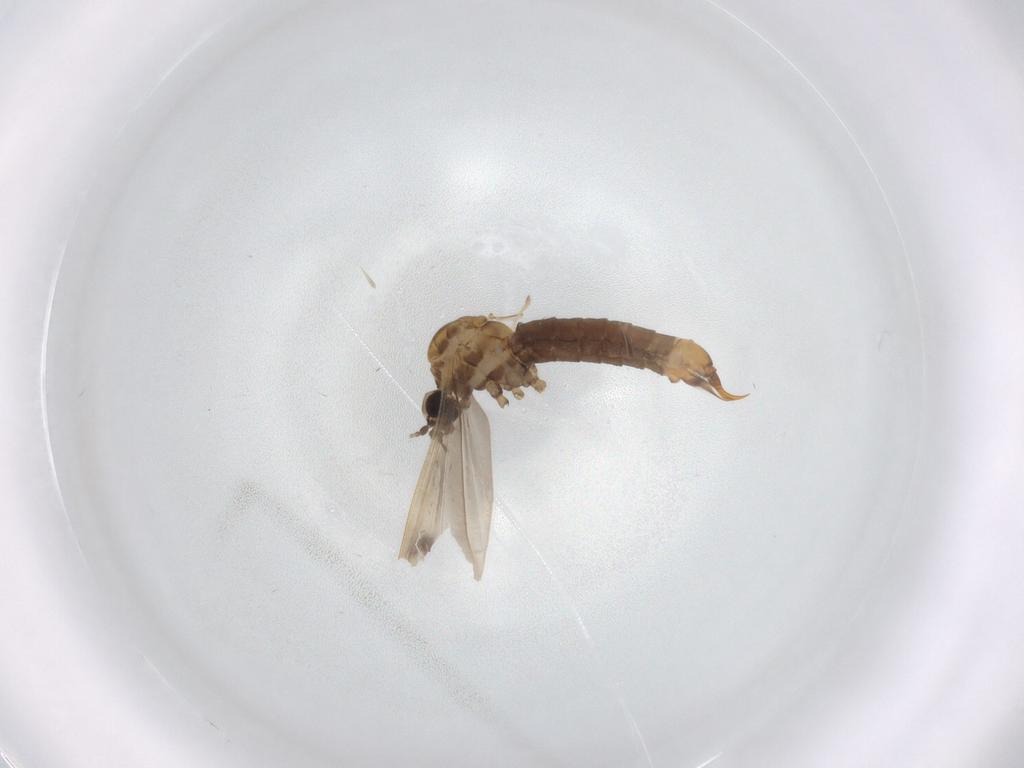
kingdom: Animalia
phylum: Arthropoda
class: Insecta
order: Diptera
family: Limoniidae
